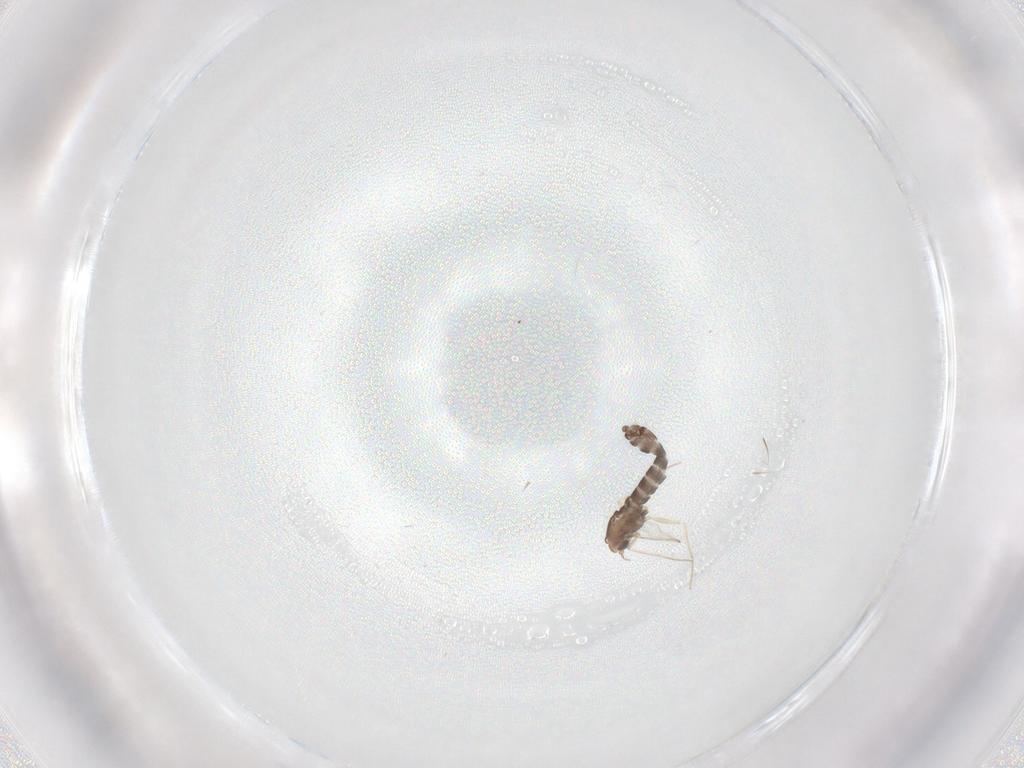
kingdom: Animalia
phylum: Arthropoda
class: Insecta
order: Diptera
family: Chironomidae
